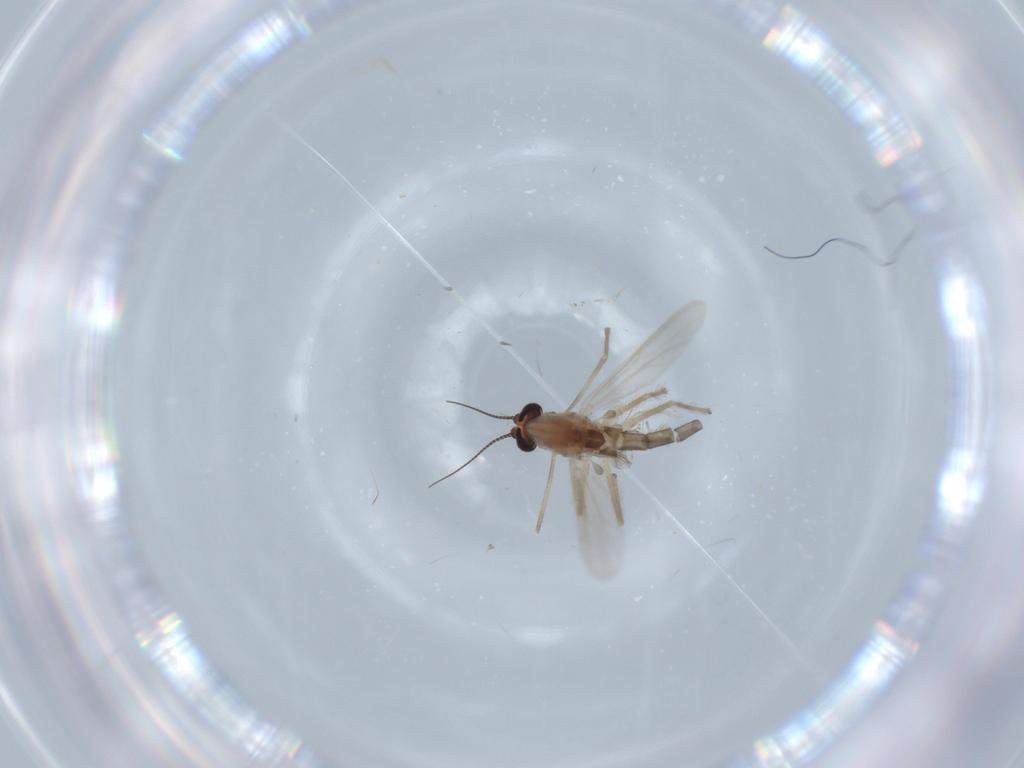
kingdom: Animalia
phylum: Arthropoda
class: Insecta
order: Diptera
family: Chironomidae
